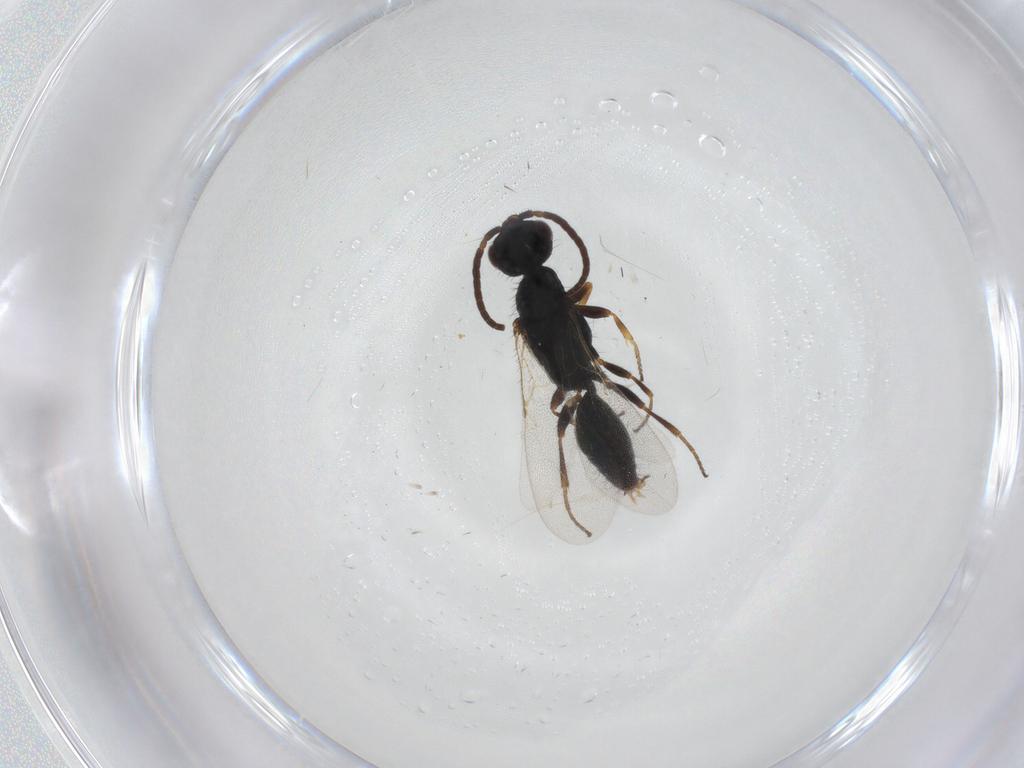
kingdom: Animalia
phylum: Arthropoda
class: Insecta
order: Hymenoptera
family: Bethylidae
